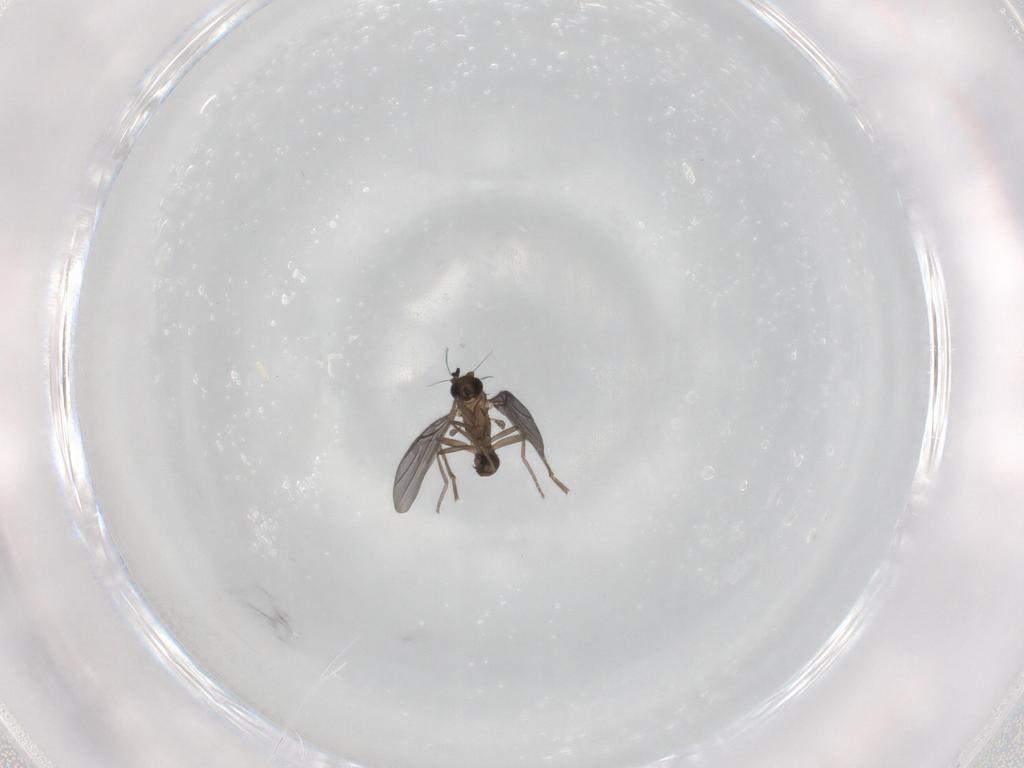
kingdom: Animalia
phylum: Arthropoda
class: Insecta
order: Diptera
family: Phoridae
